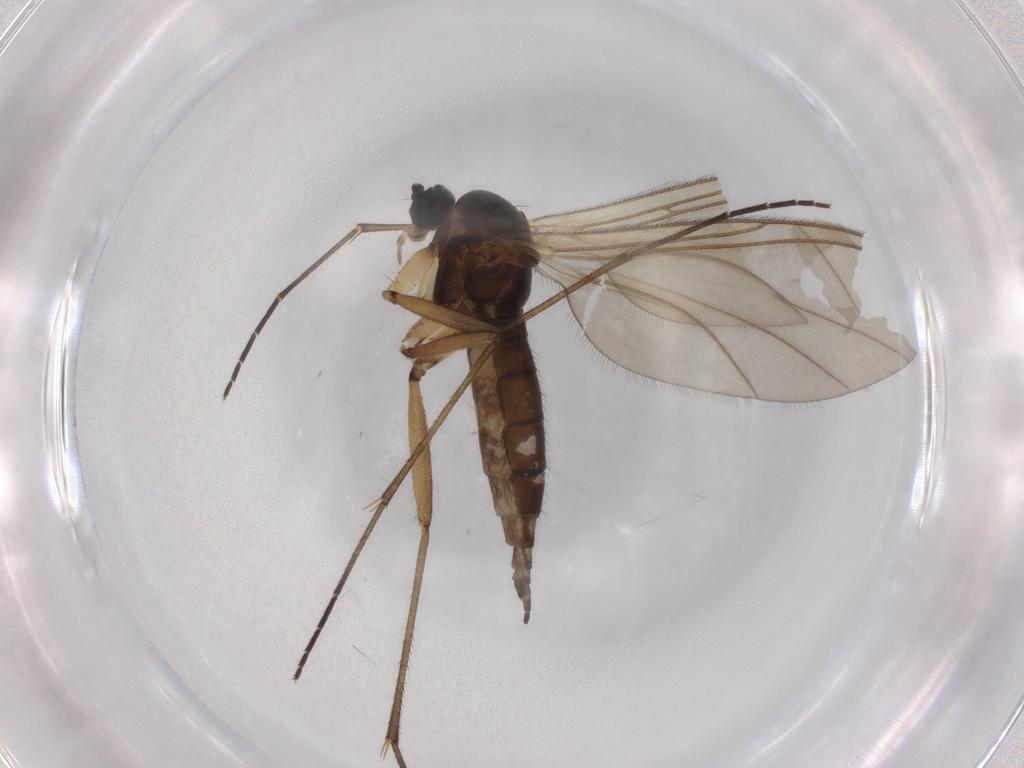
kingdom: Animalia
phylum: Arthropoda
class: Insecta
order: Diptera
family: Sciaridae
